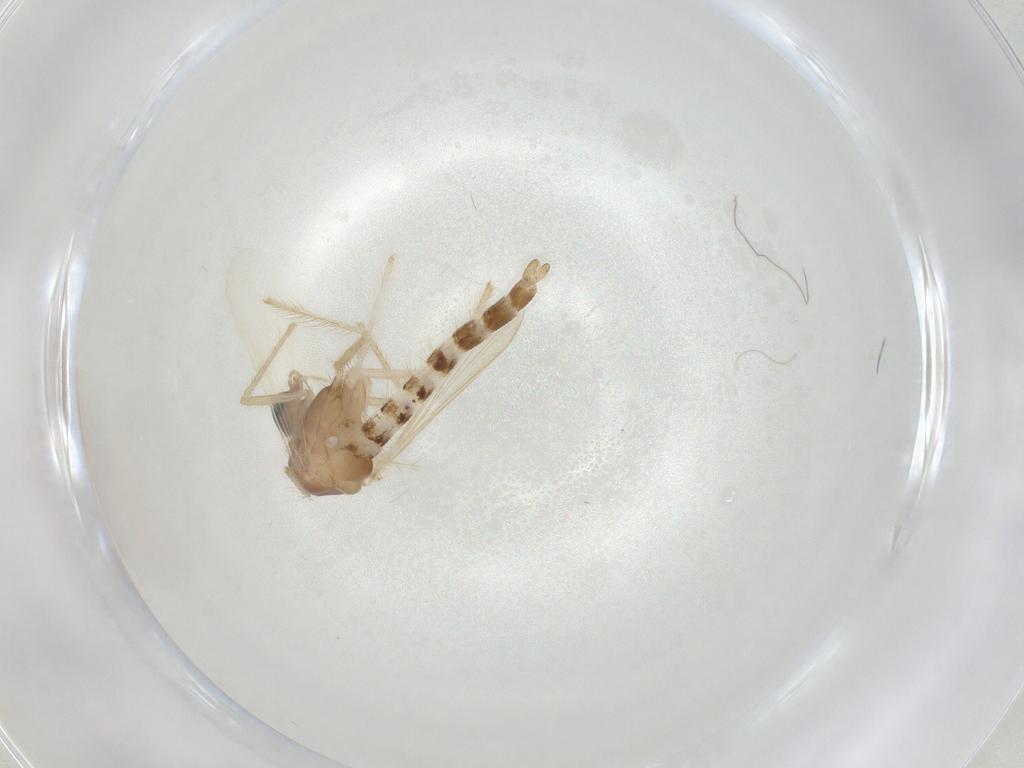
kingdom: Animalia
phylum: Arthropoda
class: Insecta
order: Diptera
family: Chironomidae
